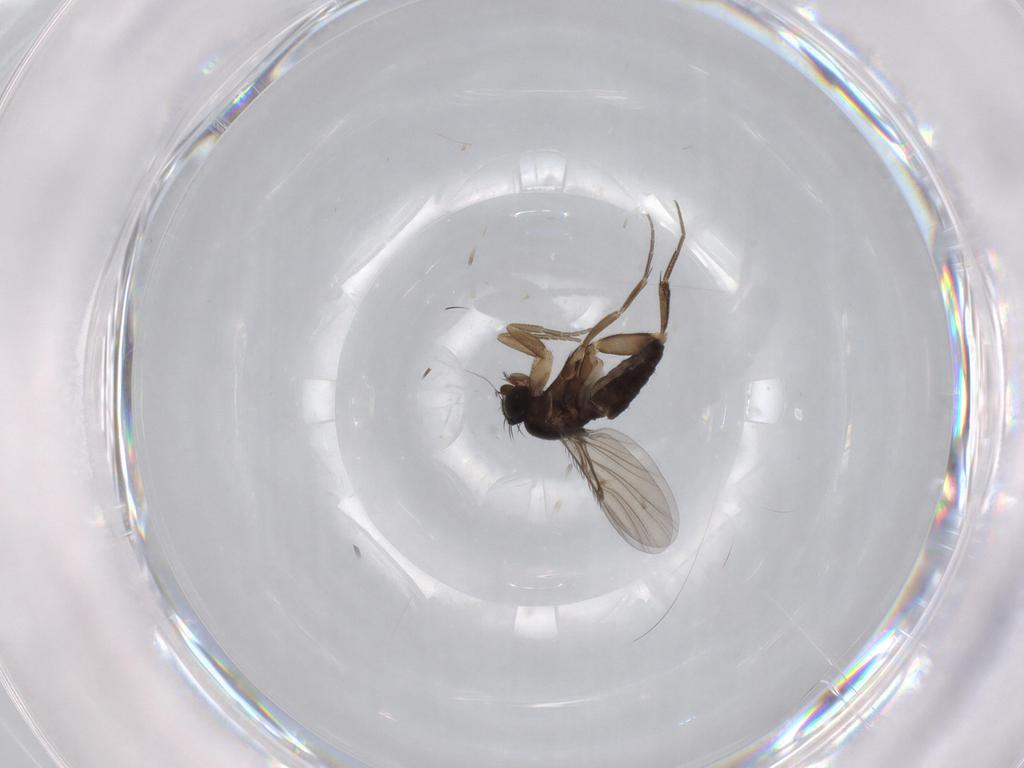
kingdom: Animalia
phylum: Arthropoda
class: Insecta
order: Diptera
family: Phoridae
